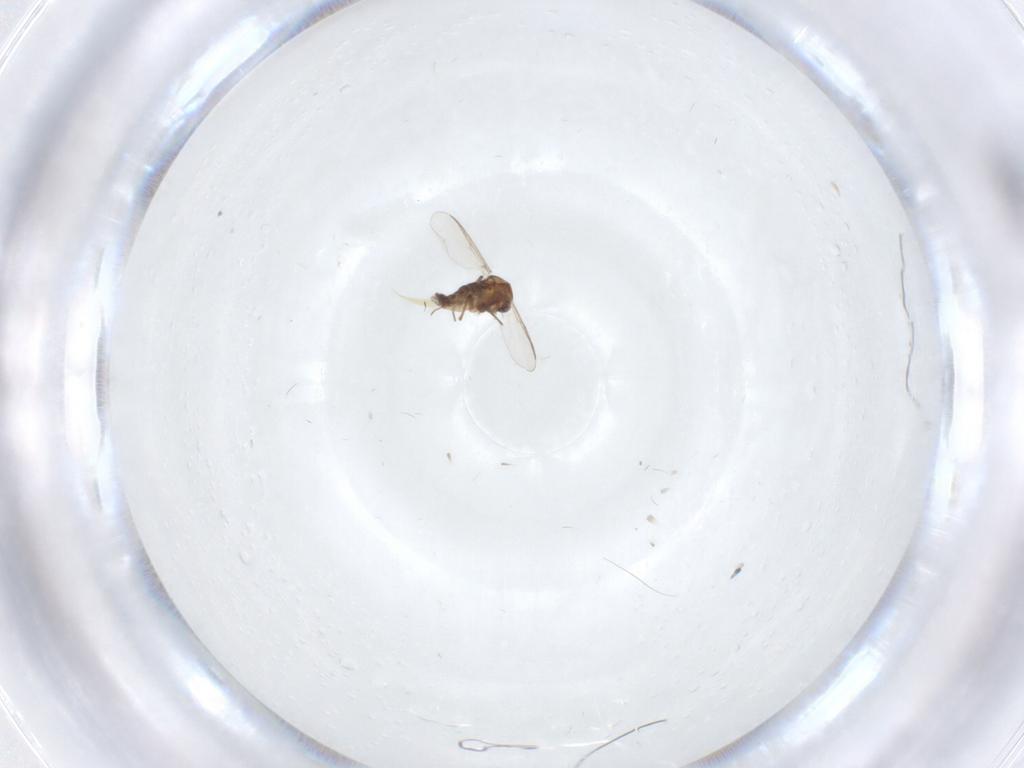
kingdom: Animalia
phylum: Arthropoda
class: Insecta
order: Diptera
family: Chironomidae
